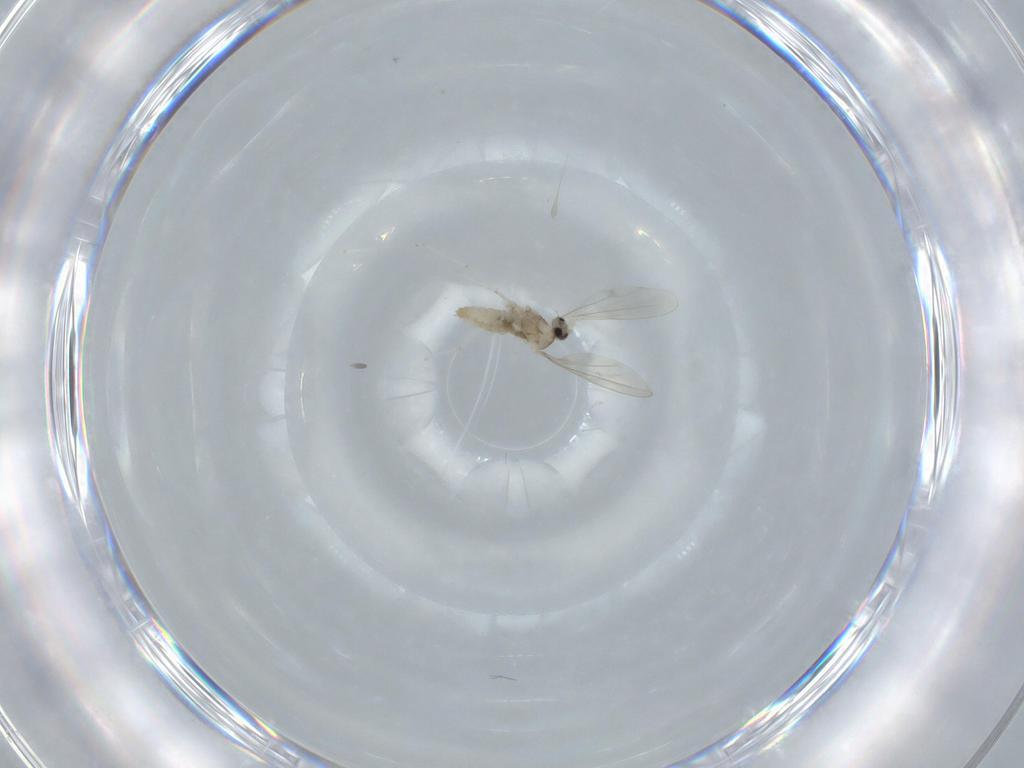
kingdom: Animalia
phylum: Arthropoda
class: Insecta
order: Diptera
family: Cecidomyiidae
